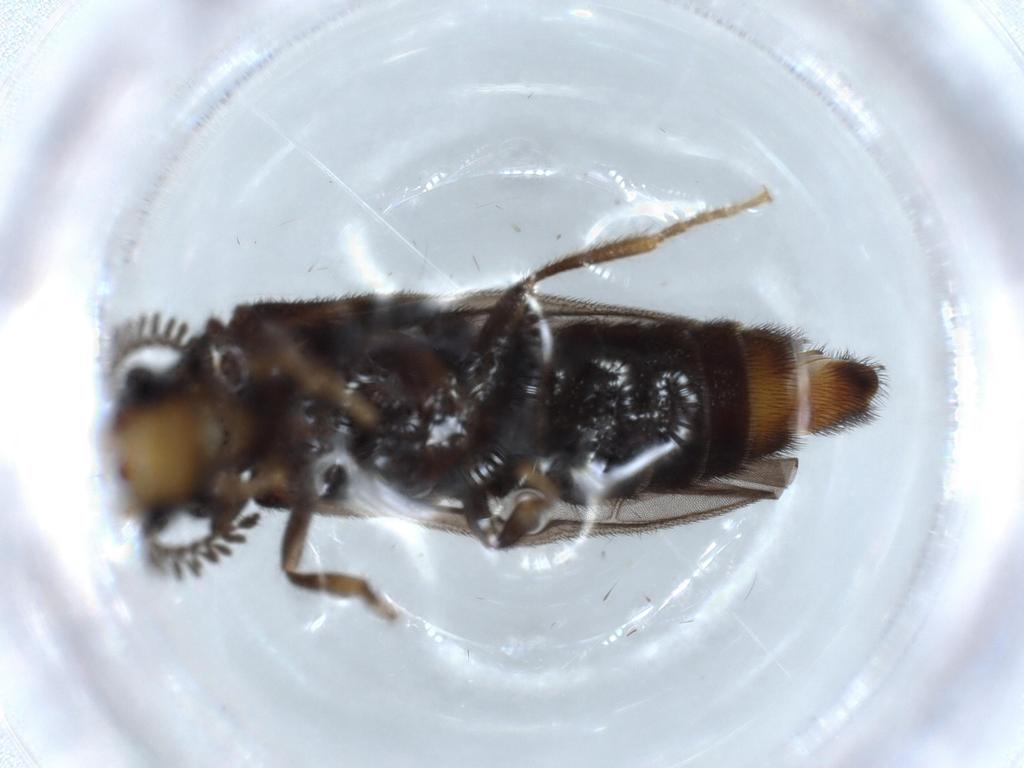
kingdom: Animalia
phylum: Arthropoda
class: Insecta
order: Coleoptera
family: Phengodidae
